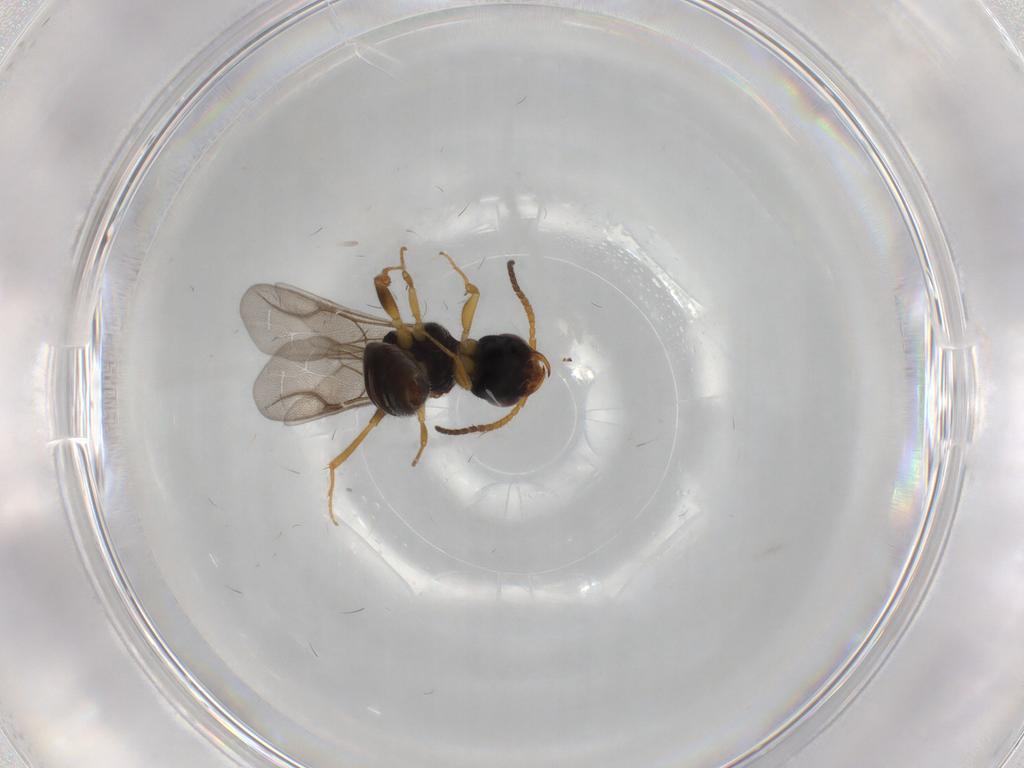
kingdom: Animalia
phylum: Arthropoda
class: Insecta
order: Hymenoptera
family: Bethylidae
